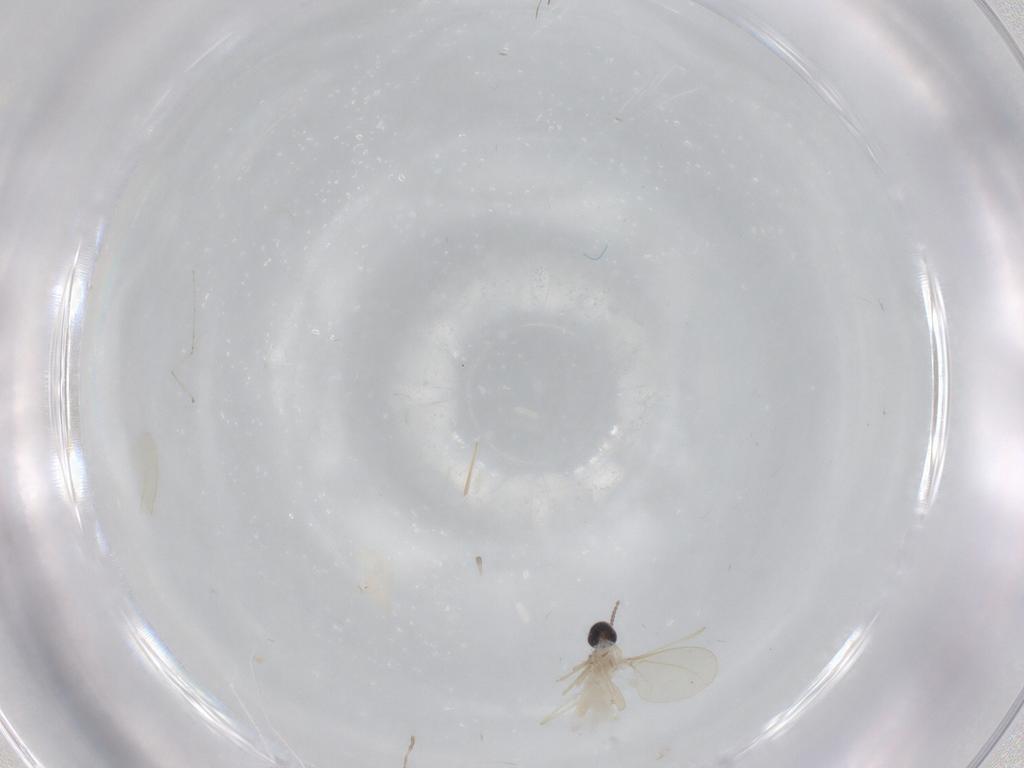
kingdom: Animalia
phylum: Arthropoda
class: Insecta
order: Diptera
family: Cecidomyiidae
